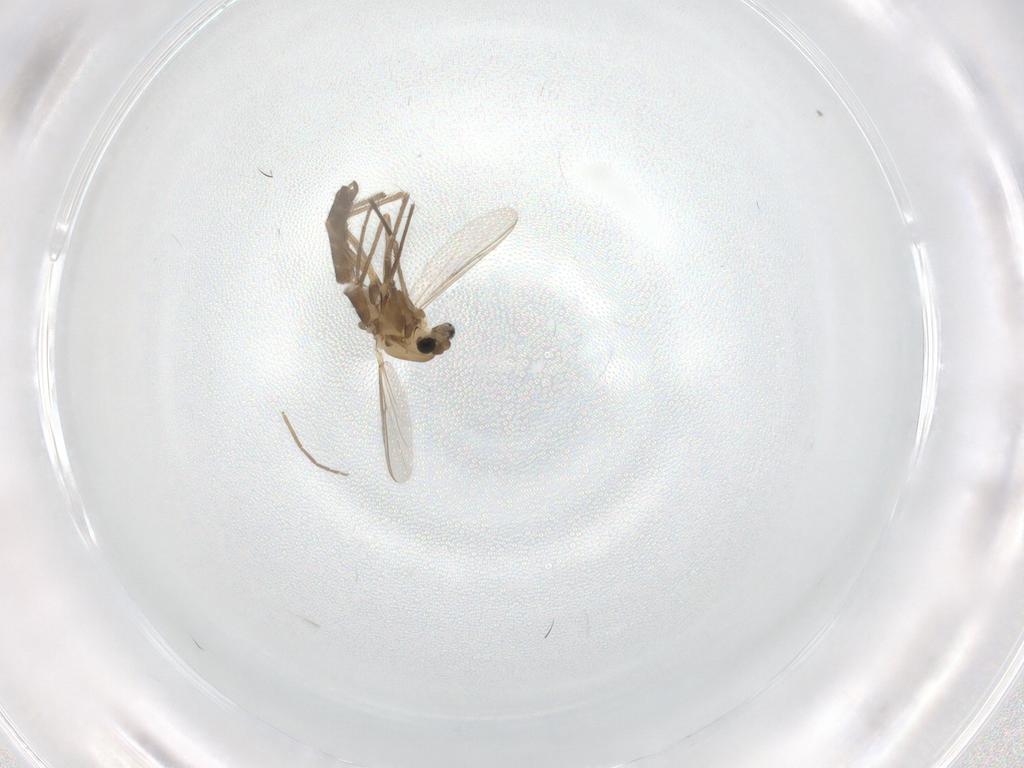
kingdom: Animalia
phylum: Arthropoda
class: Insecta
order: Diptera
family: Chironomidae
